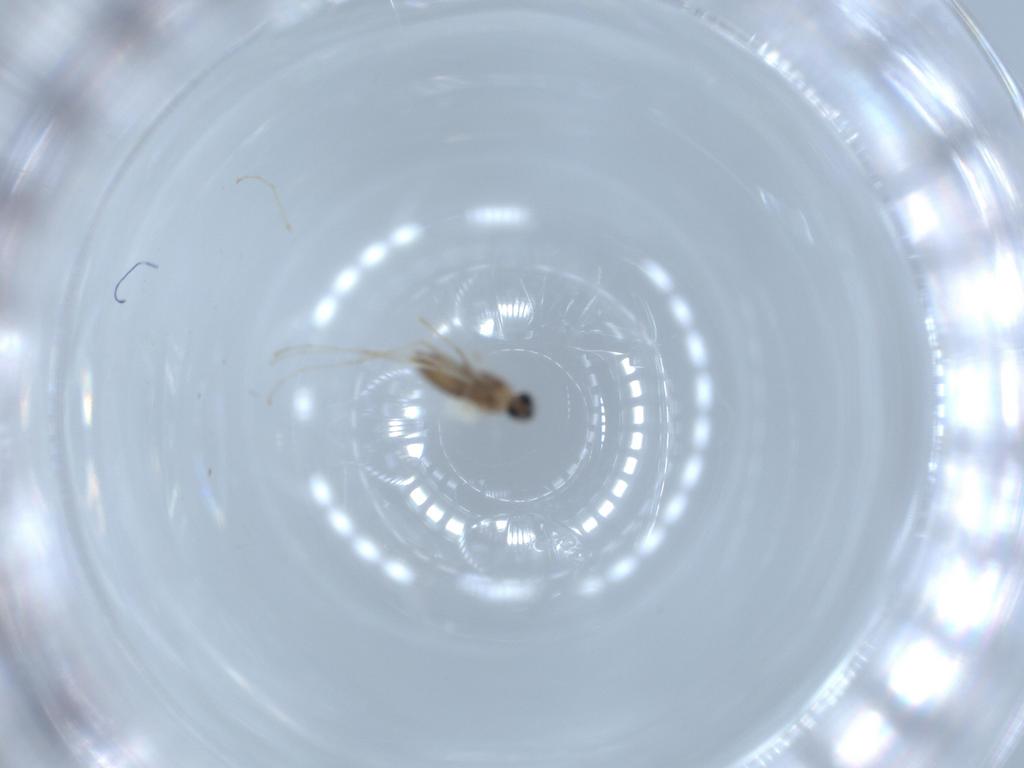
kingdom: Animalia
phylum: Arthropoda
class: Insecta
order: Diptera
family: Cecidomyiidae
